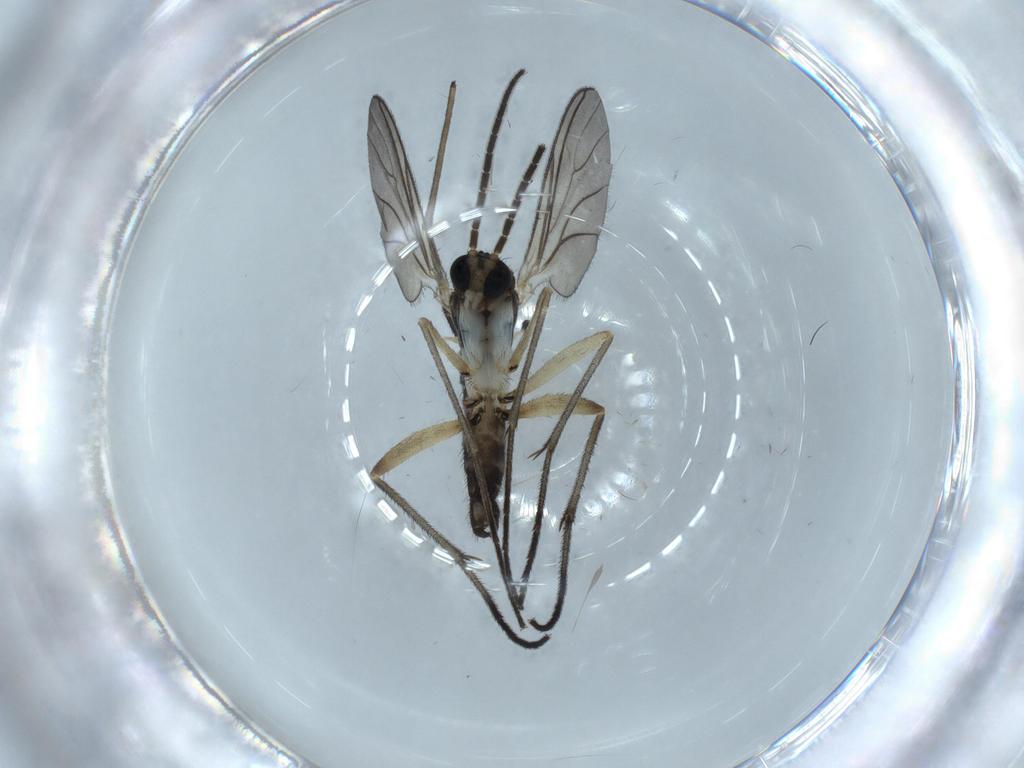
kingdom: Animalia
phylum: Arthropoda
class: Insecta
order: Diptera
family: Sciaridae
